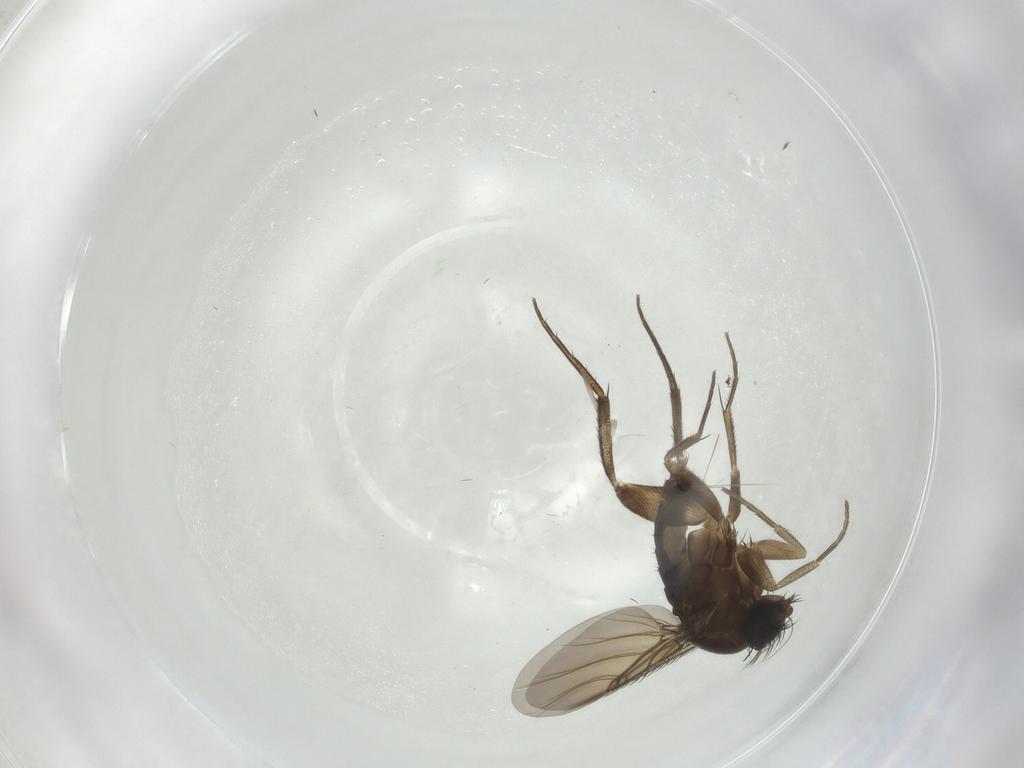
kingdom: Animalia
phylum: Arthropoda
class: Insecta
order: Diptera
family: Phoridae
